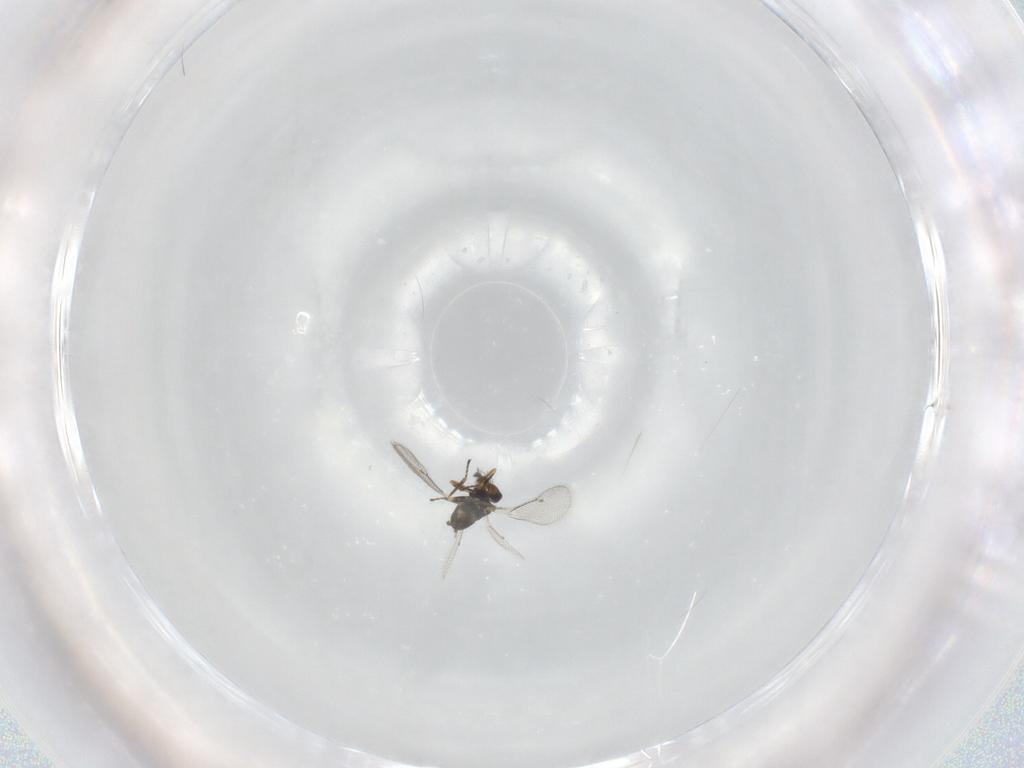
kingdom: Animalia
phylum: Arthropoda
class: Insecta
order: Hymenoptera
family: Eulophidae
